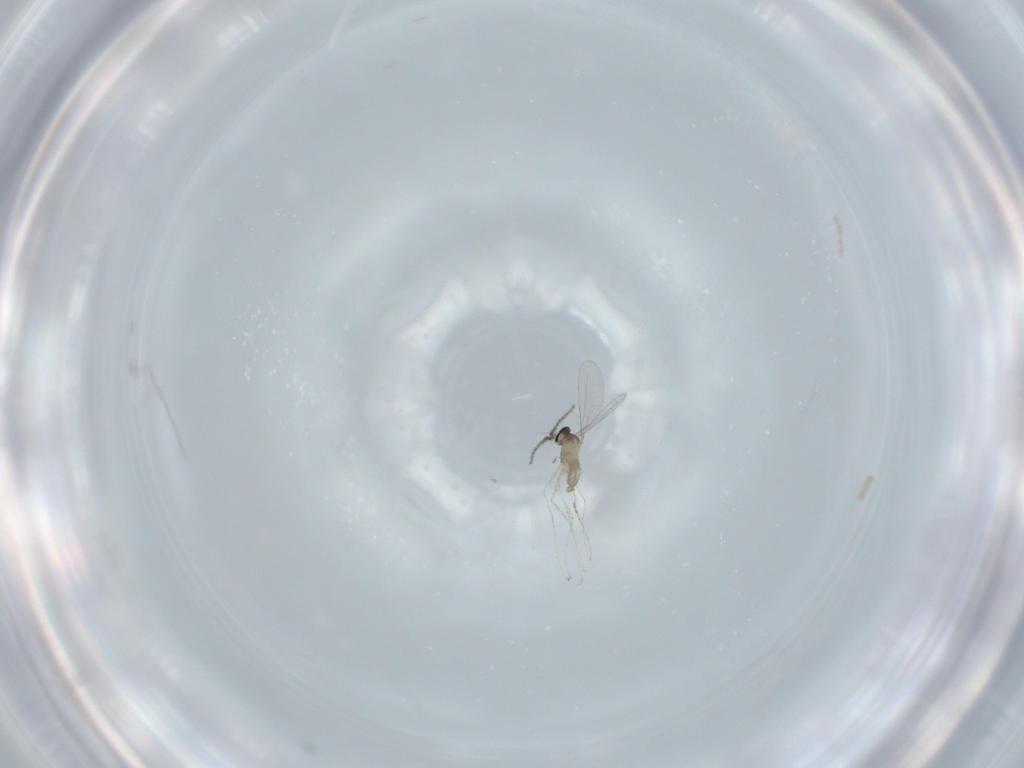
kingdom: Animalia
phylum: Arthropoda
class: Insecta
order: Diptera
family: Cecidomyiidae
